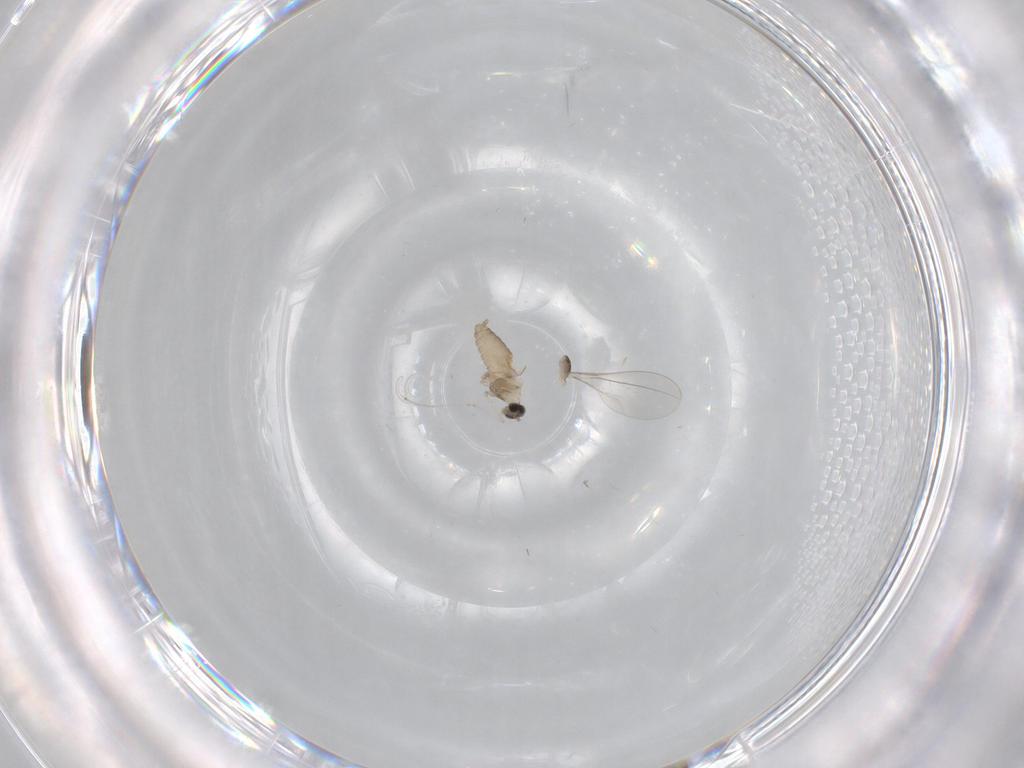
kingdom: Animalia
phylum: Arthropoda
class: Insecta
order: Diptera
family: Cecidomyiidae
